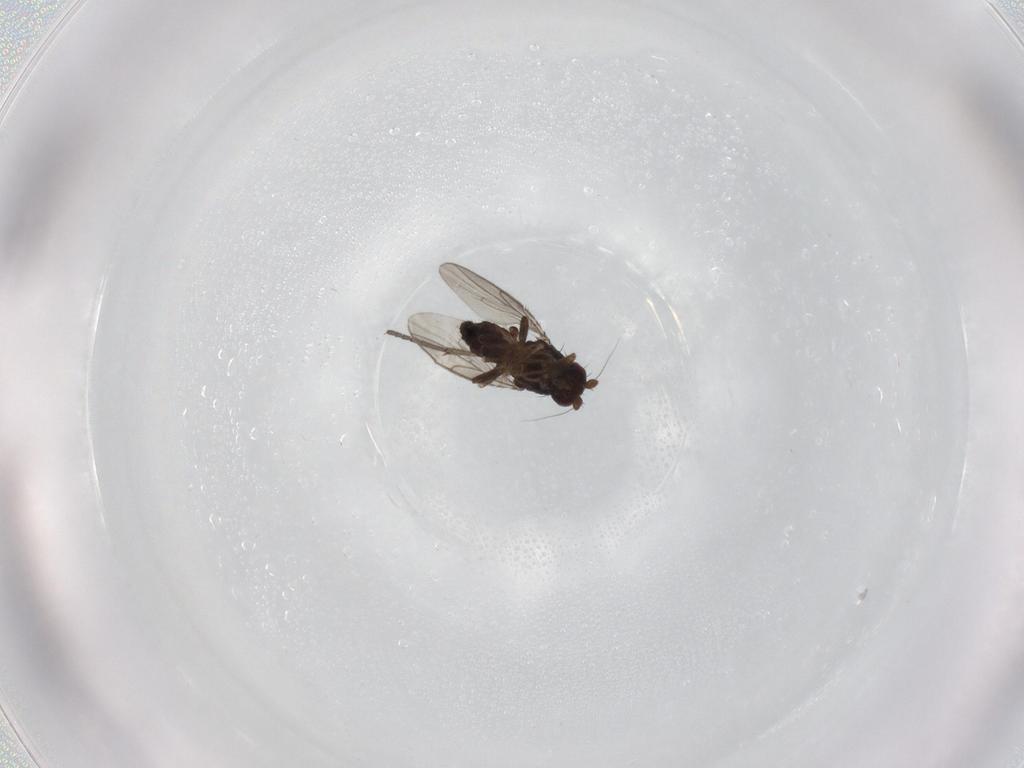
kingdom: Animalia
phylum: Arthropoda
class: Insecta
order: Diptera
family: Sphaeroceridae
